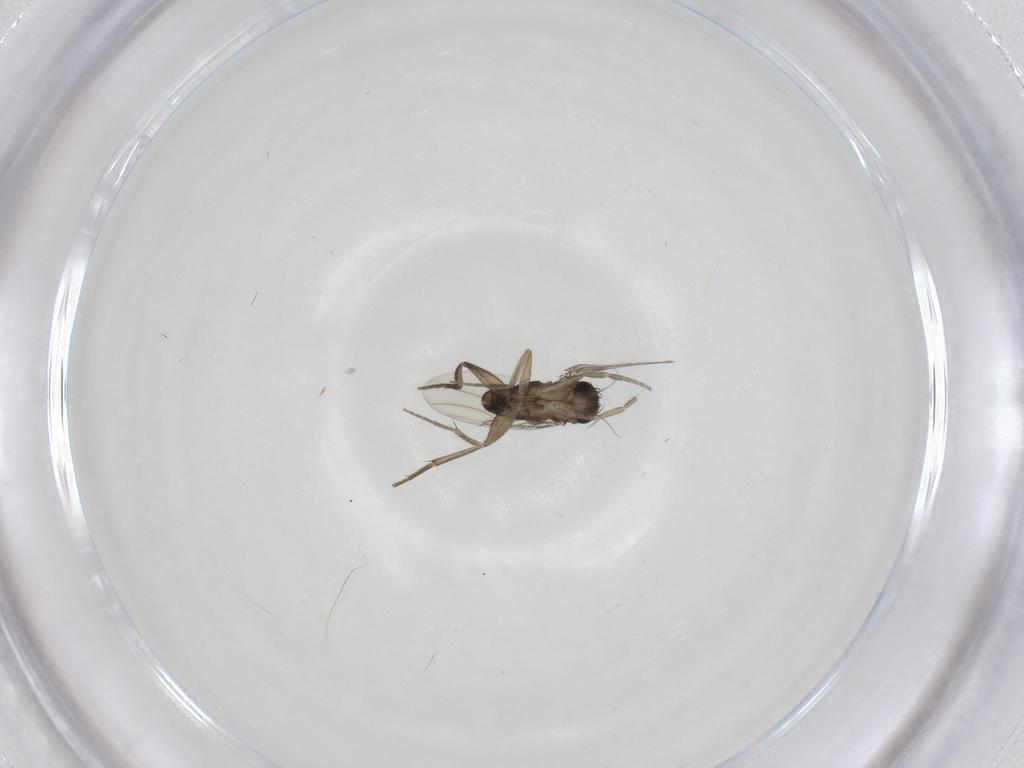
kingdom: Animalia
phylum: Arthropoda
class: Insecta
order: Diptera
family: Phoridae
